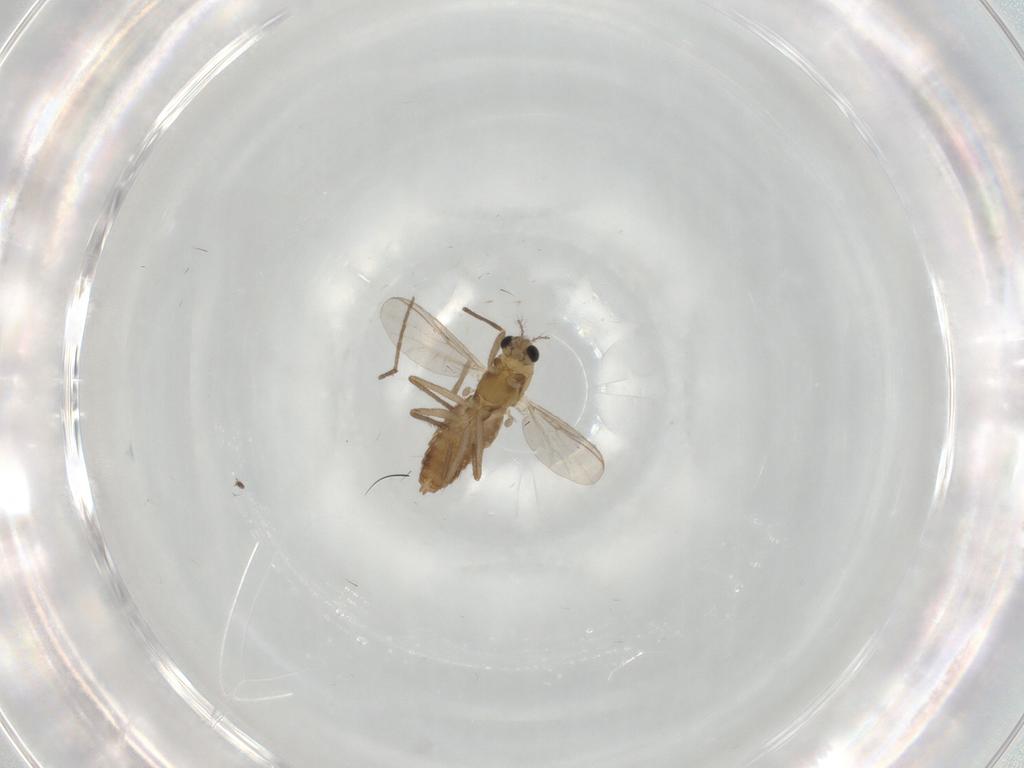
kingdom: Animalia
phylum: Arthropoda
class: Insecta
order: Diptera
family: Chironomidae
